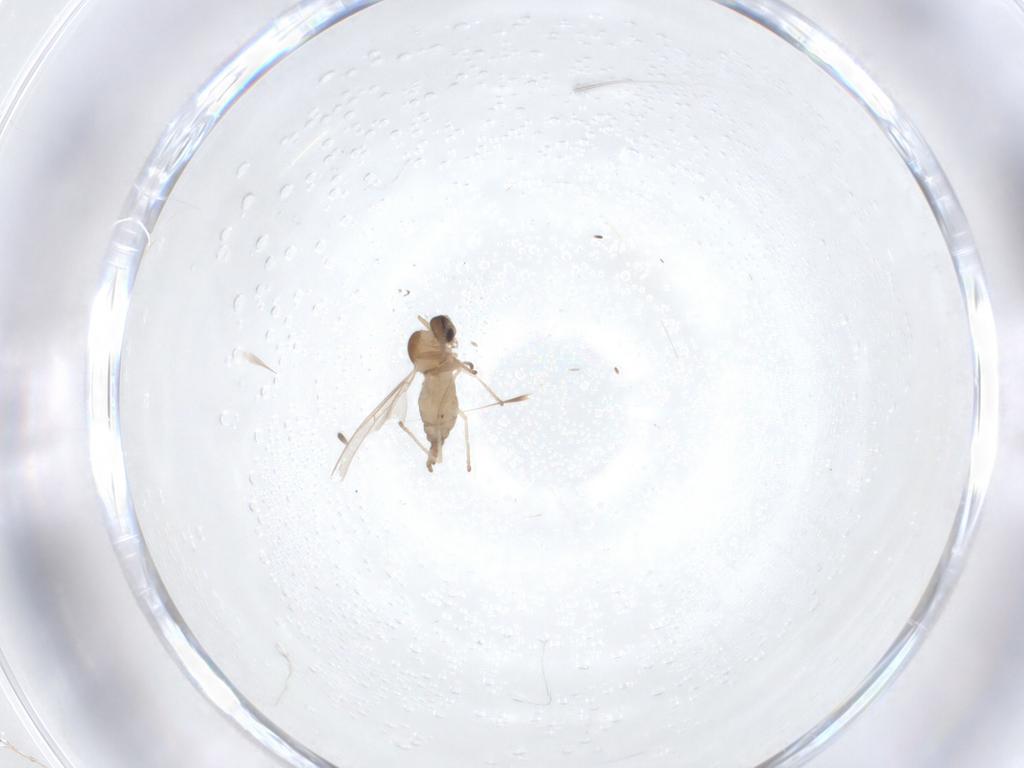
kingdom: Animalia
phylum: Arthropoda
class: Insecta
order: Diptera
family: Cecidomyiidae
